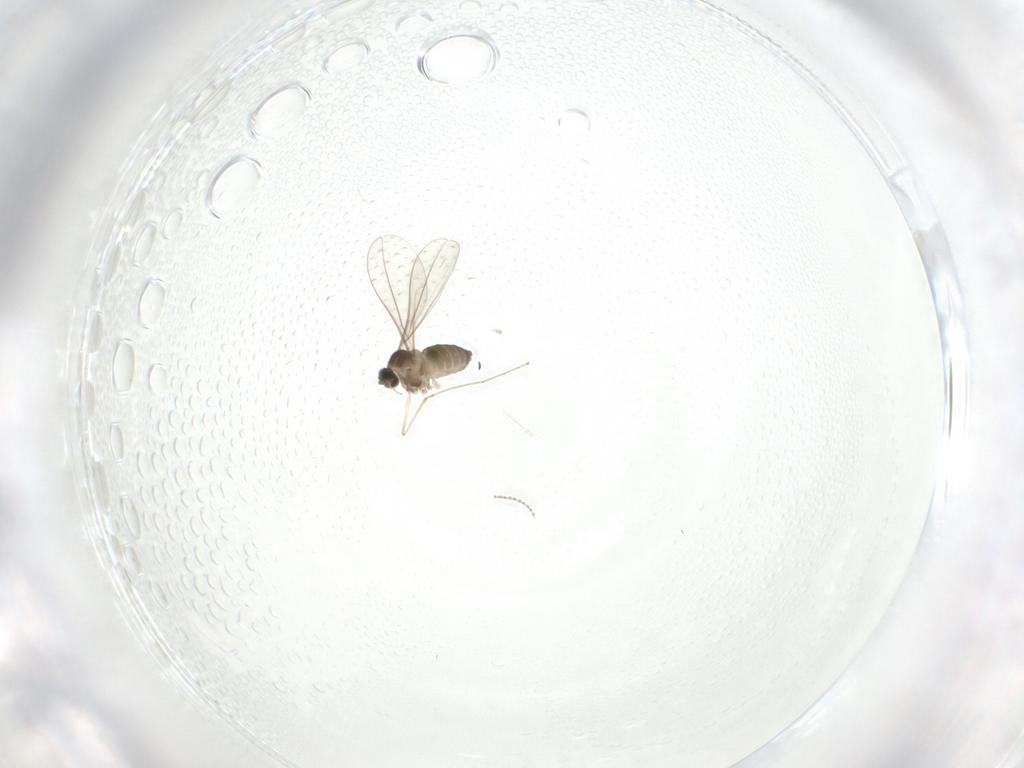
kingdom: Animalia
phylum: Arthropoda
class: Insecta
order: Diptera
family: Cecidomyiidae
